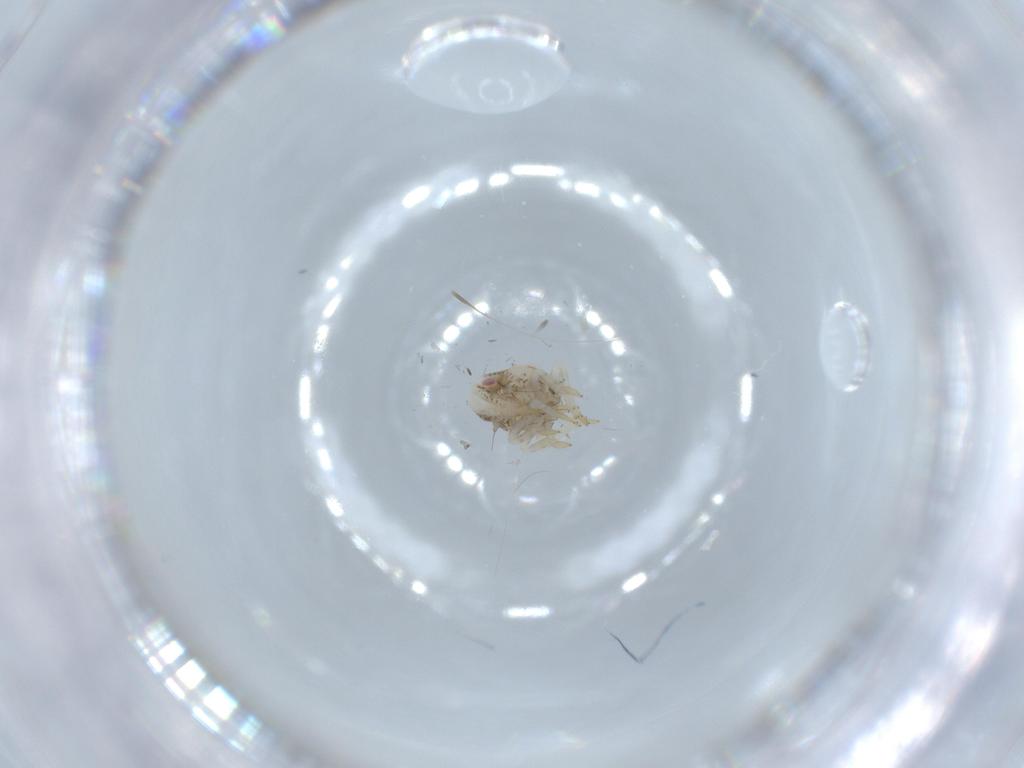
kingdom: Animalia
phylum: Arthropoda
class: Insecta
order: Hemiptera
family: Acanaloniidae
